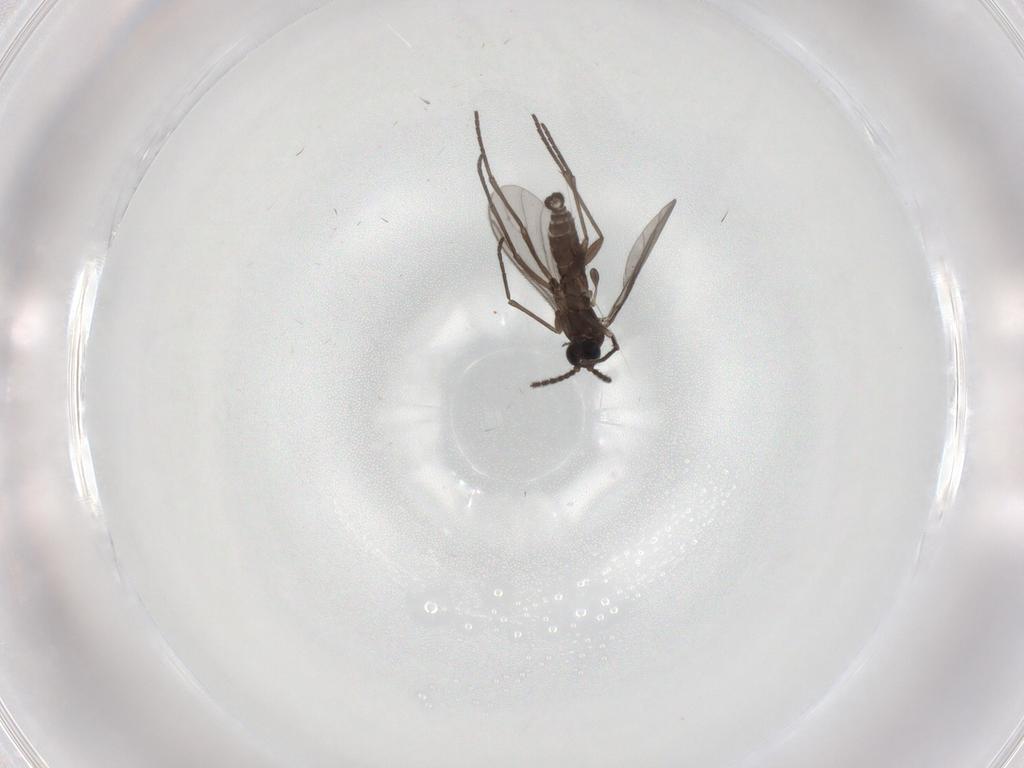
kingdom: Animalia
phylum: Arthropoda
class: Insecta
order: Diptera
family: Sciaridae
